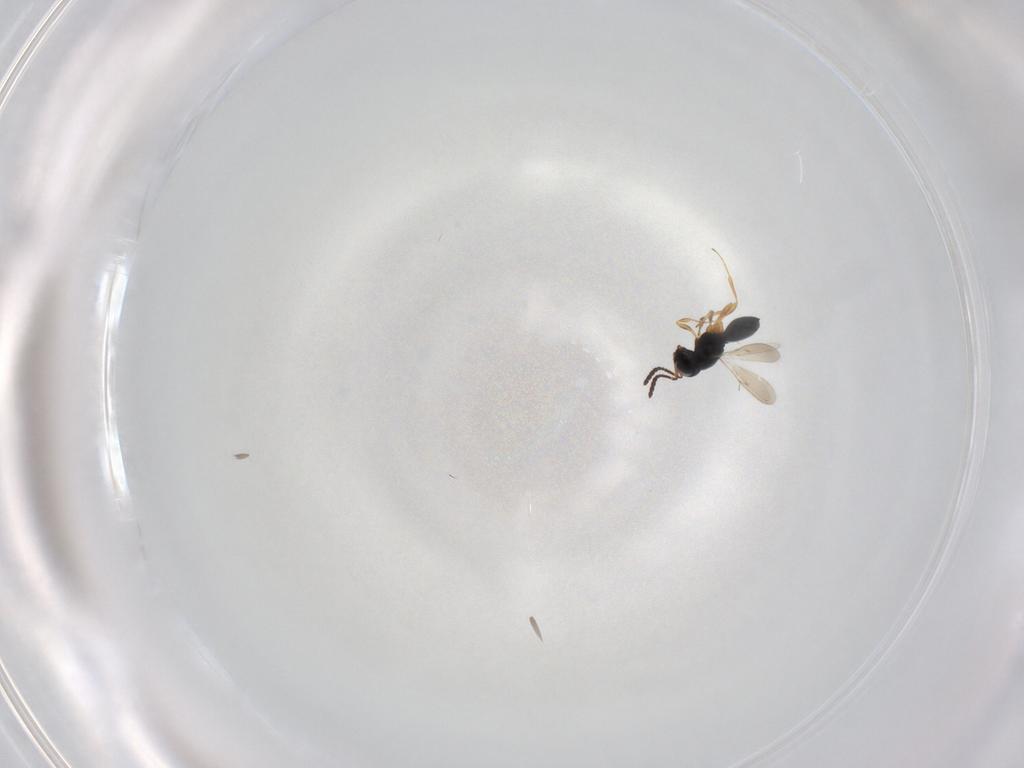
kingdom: Animalia
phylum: Arthropoda
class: Insecta
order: Hymenoptera
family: Scelionidae
